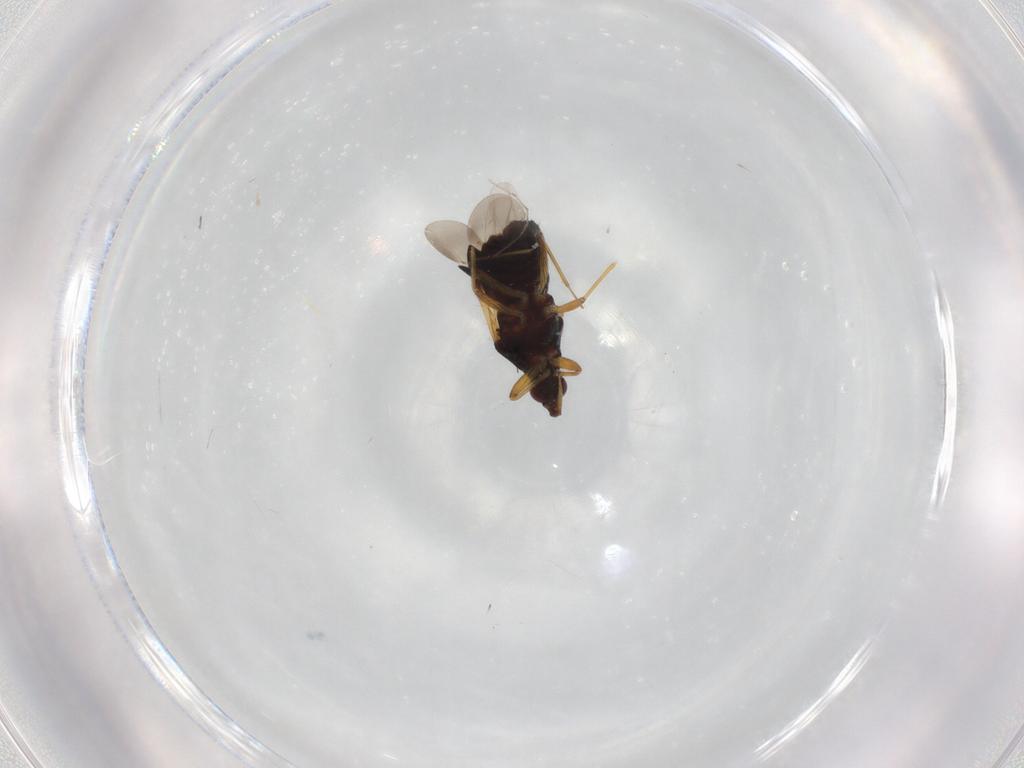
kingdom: Animalia
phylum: Arthropoda
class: Insecta
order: Hemiptera
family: Anthocoridae
